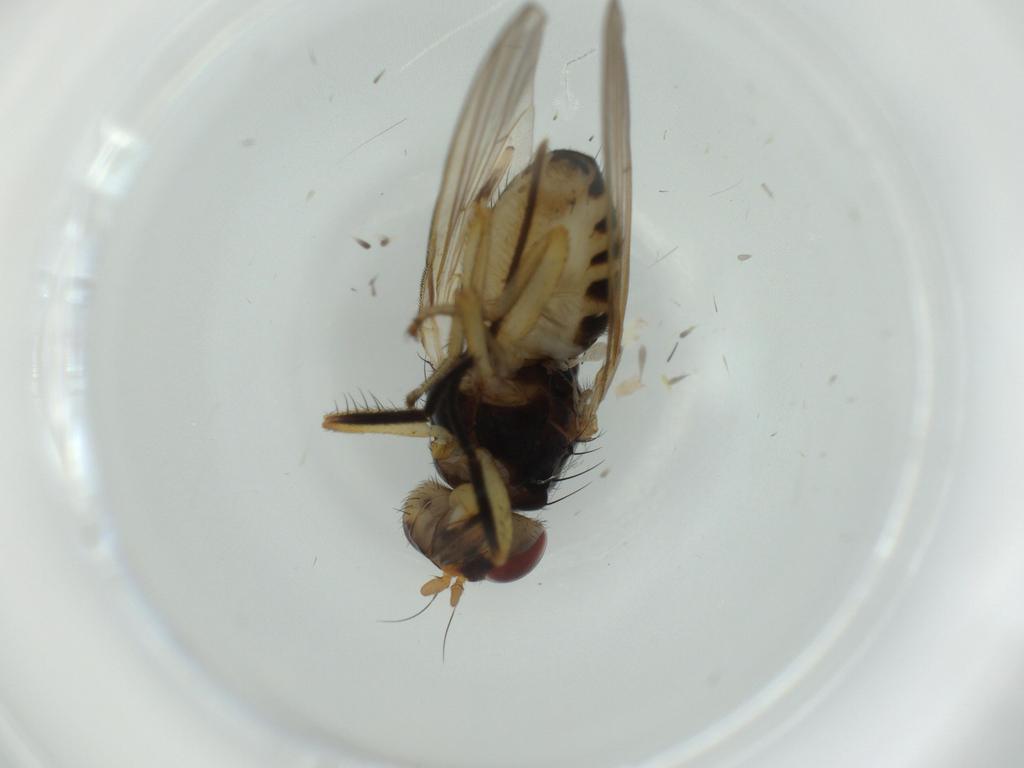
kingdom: Animalia
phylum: Arthropoda
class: Insecta
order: Diptera
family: Lauxaniidae
